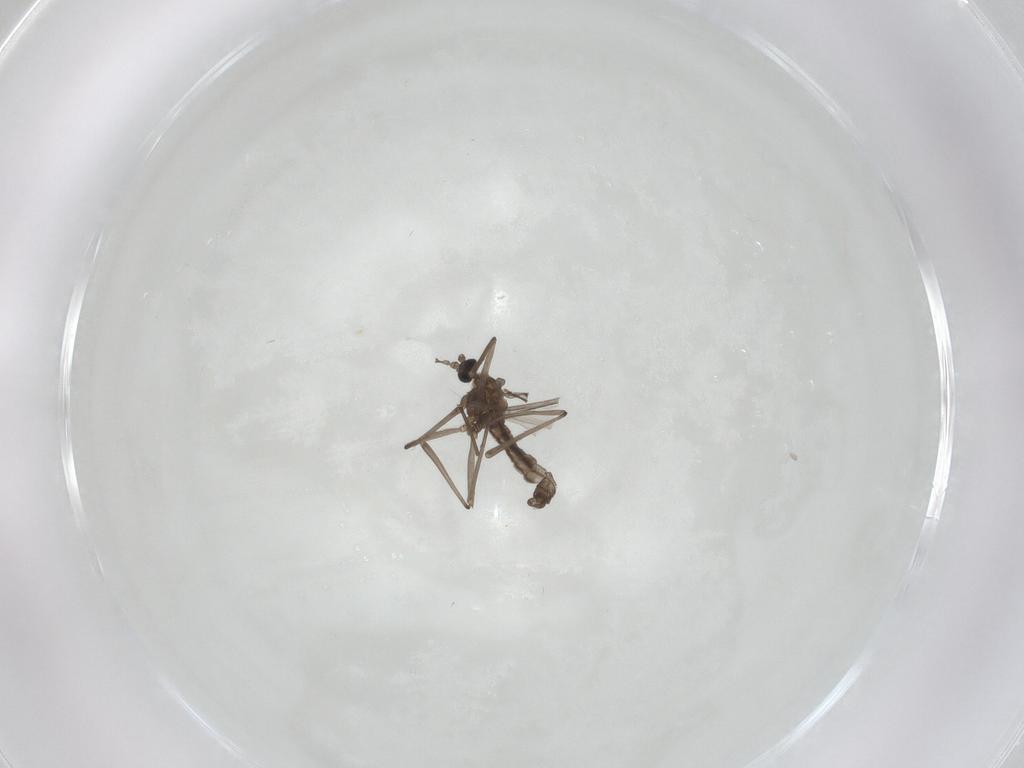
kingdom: Animalia
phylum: Arthropoda
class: Insecta
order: Diptera
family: Cecidomyiidae
